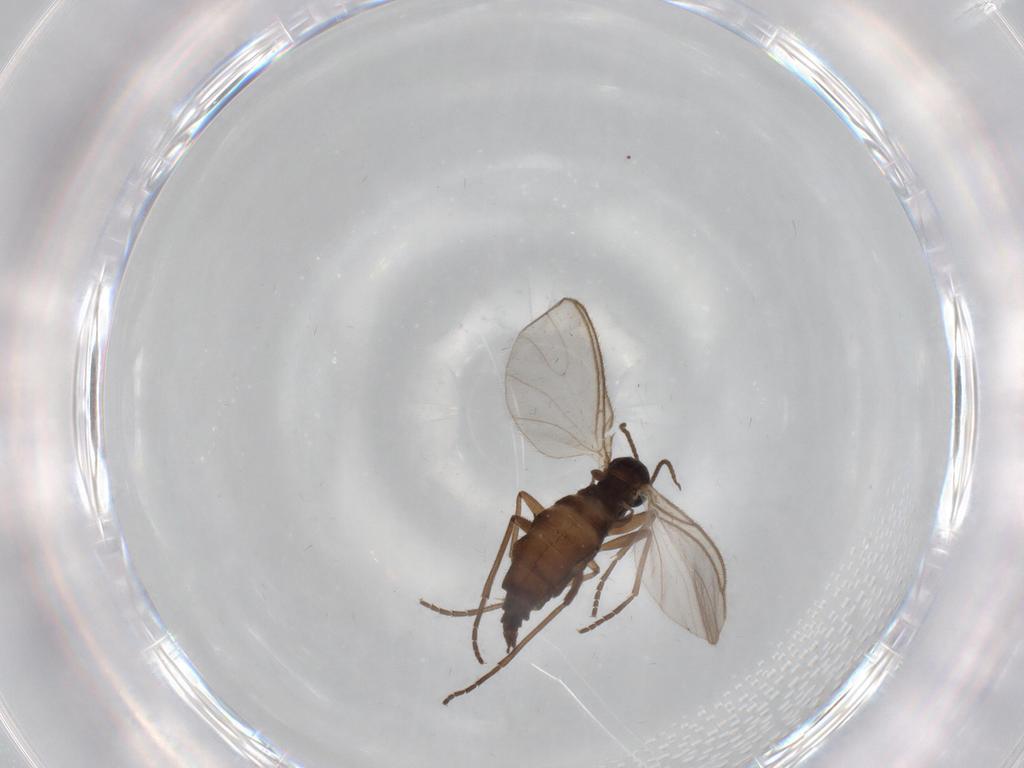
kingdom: Animalia
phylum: Arthropoda
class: Insecta
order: Diptera
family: Sciaridae
